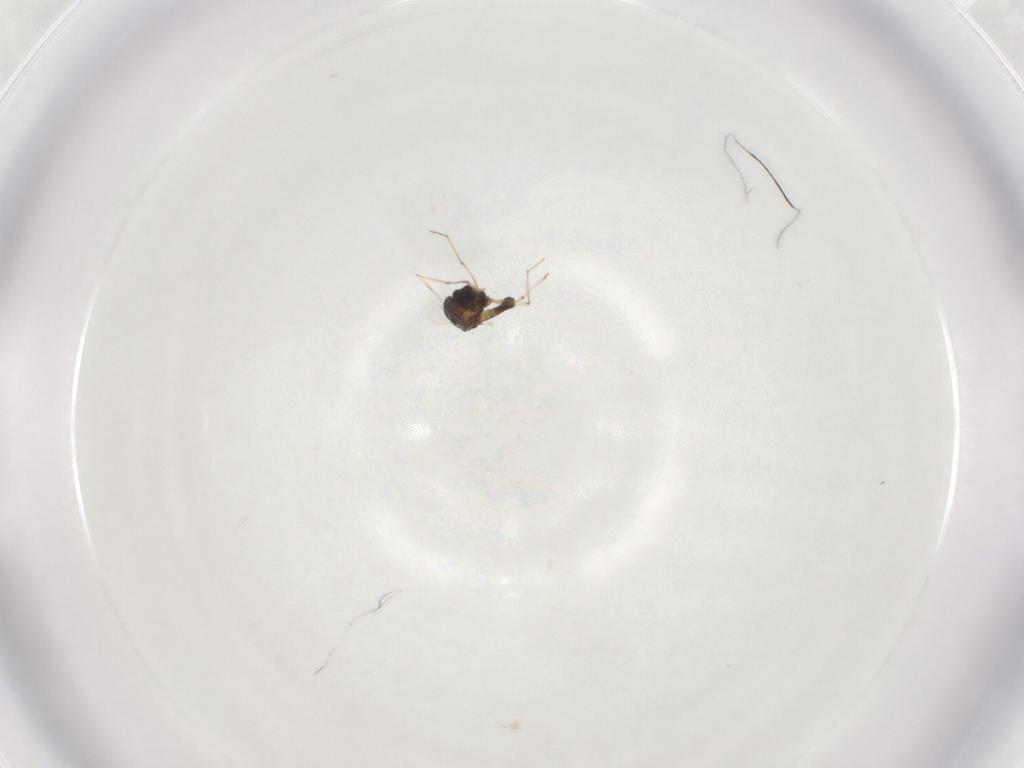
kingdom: Animalia
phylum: Arthropoda
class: Insecta
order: Diptera
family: Chironomidae
